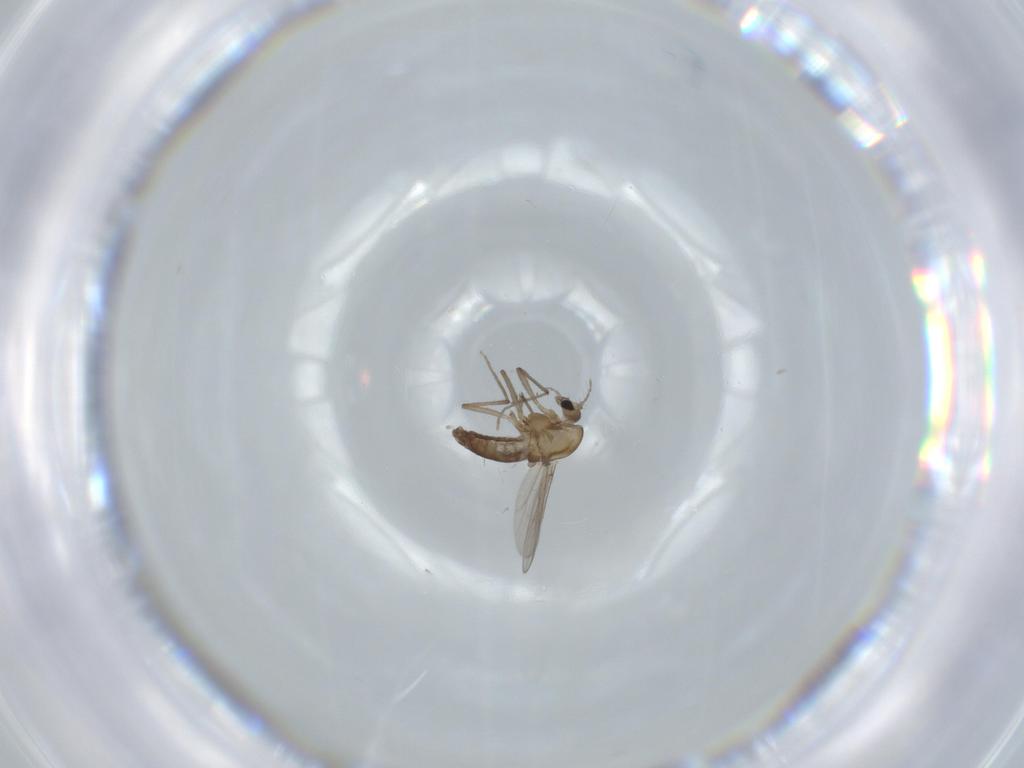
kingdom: Animalia
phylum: Arthropoda
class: Insecta
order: Diptera
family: Chironomidae
